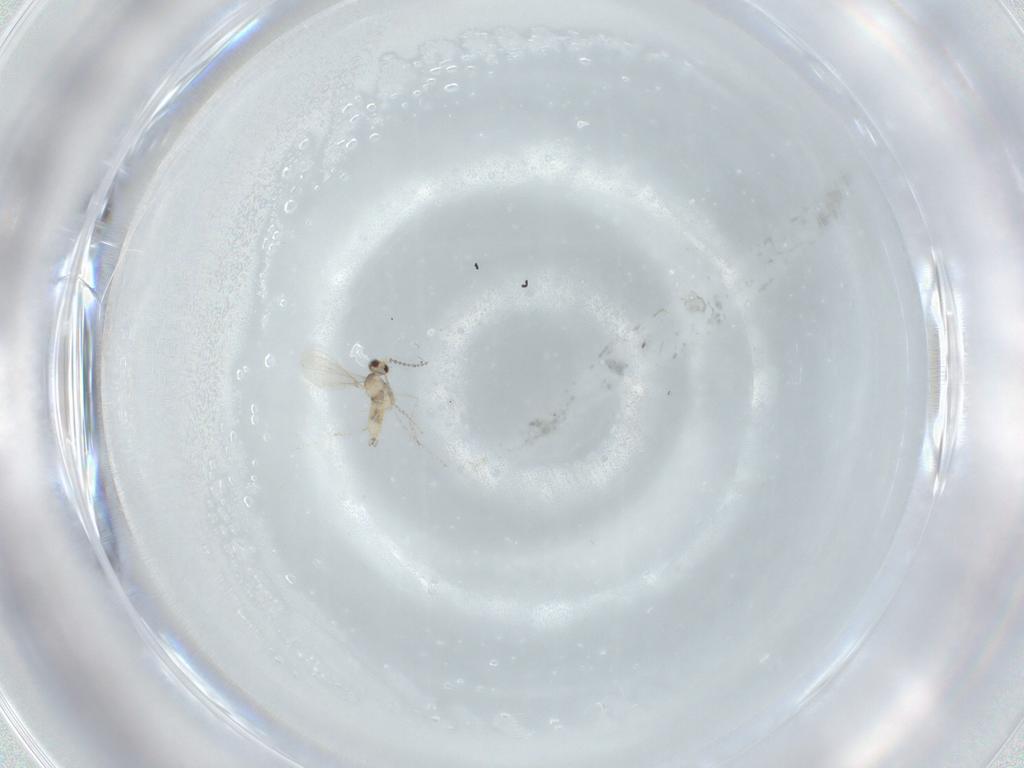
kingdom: Animalia
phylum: Arthropoda
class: Insecta
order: Diptera
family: Cecidomyiidae
